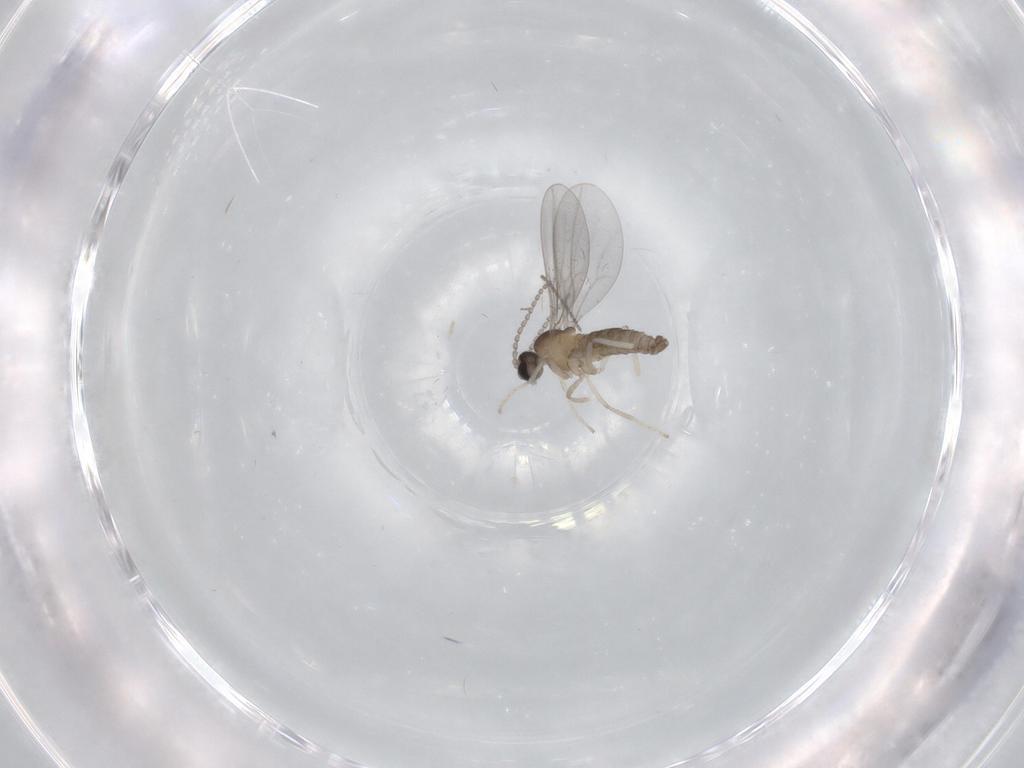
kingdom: Animalia
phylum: Arthropoda
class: Insecta
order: Diptera
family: Cecidomyiidae
